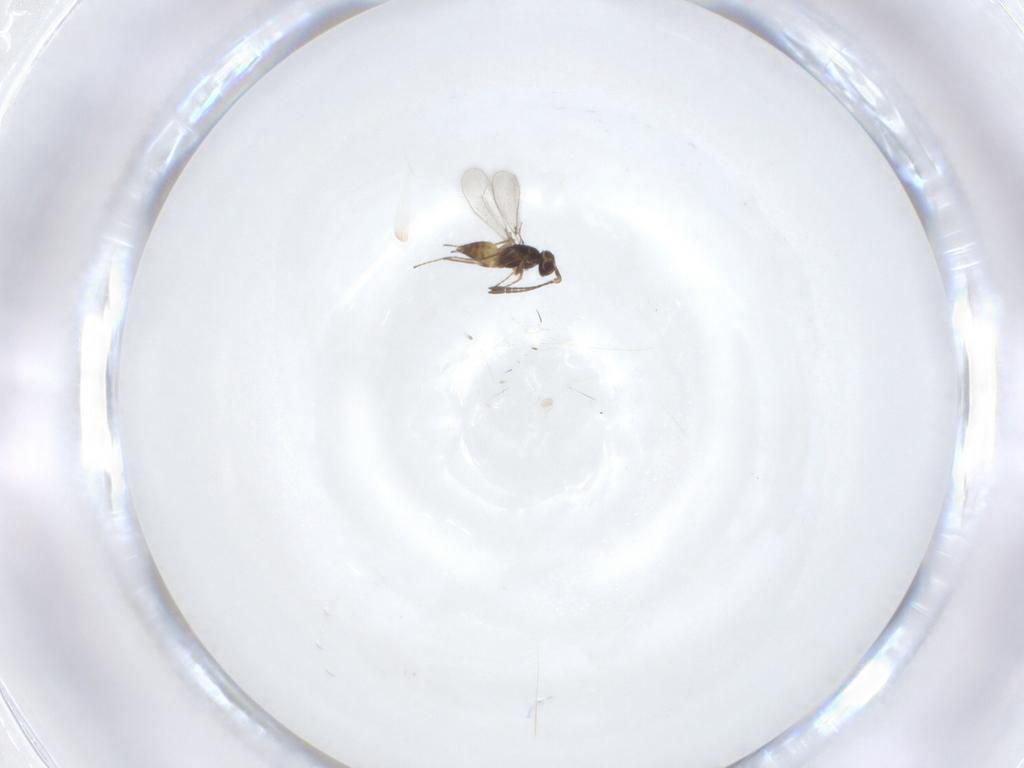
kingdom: Animalia
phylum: Arthropoda
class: Insecta
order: Hymenoptera
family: Mymaridae
